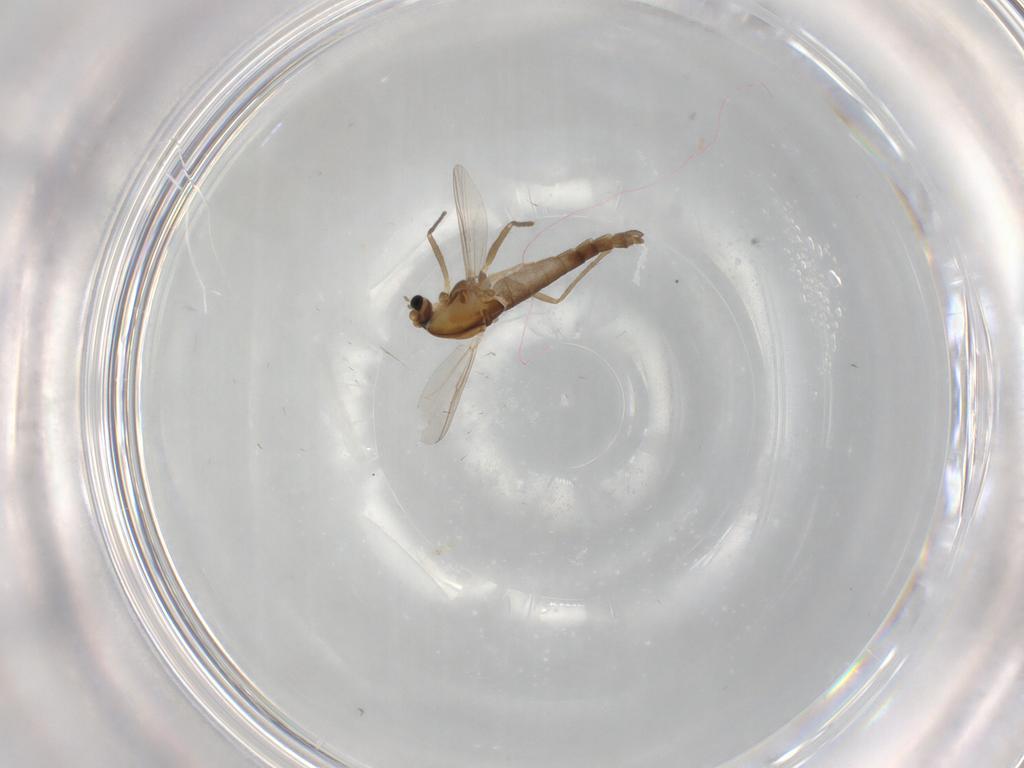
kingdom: Animalia
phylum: Arthropoda
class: Insecta
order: Diptera
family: Chironomidae
